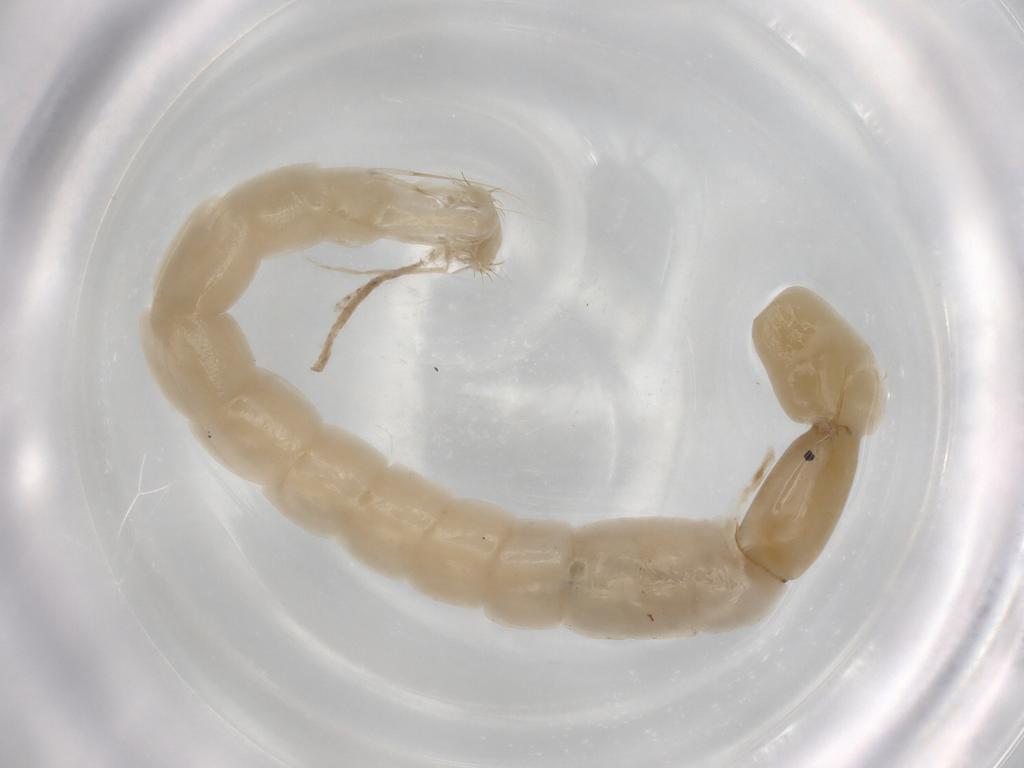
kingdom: Animalia
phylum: Arthropoda
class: Insecta
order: Diptera
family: Chironomidae
